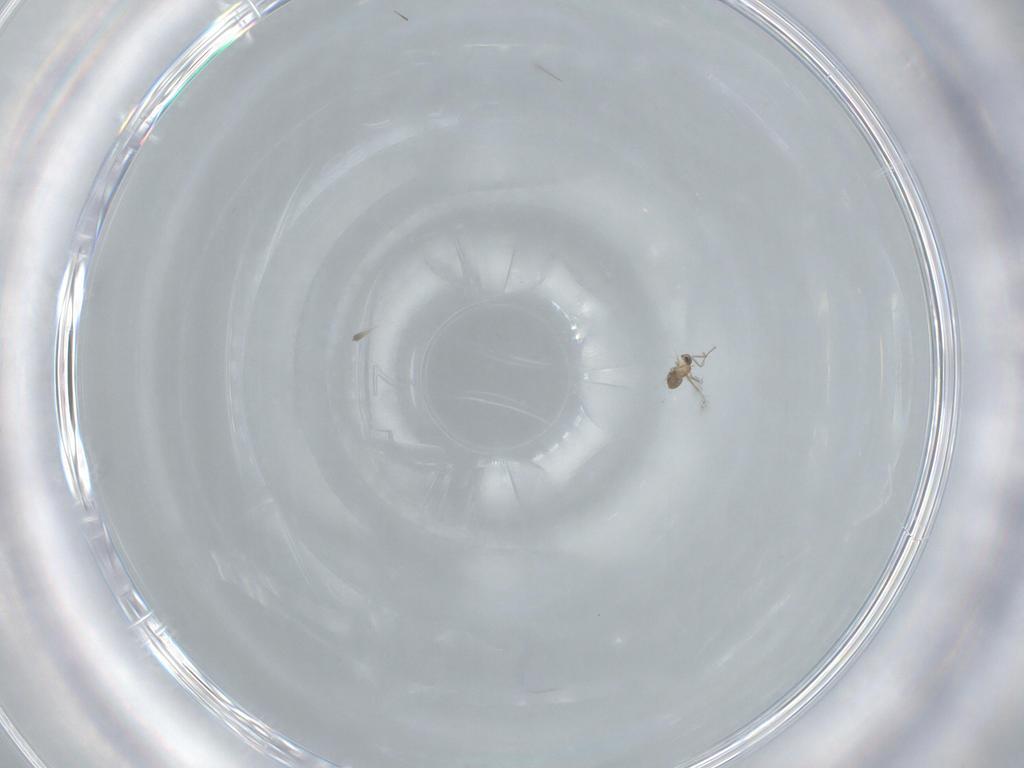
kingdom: Animalia
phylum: Arthropoda
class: Insecta
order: Hymenoptera
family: Mymaridae
